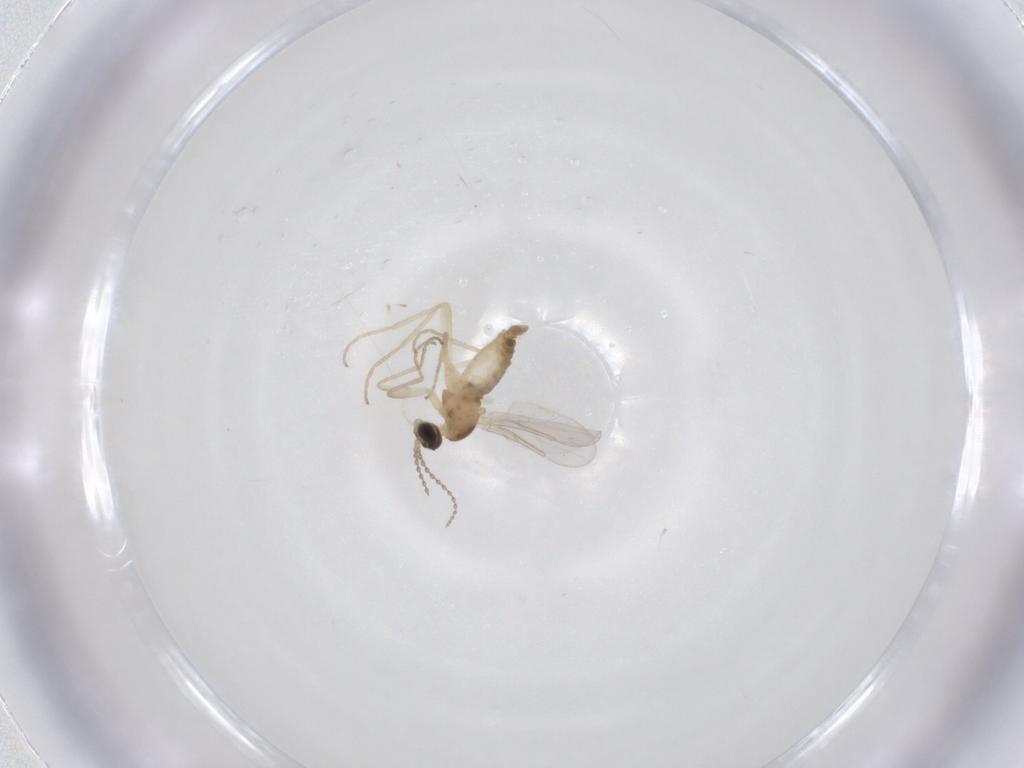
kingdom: Animalia
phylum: Arthropoda
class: Insecta
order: Diptera
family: Cecidomyiidae
